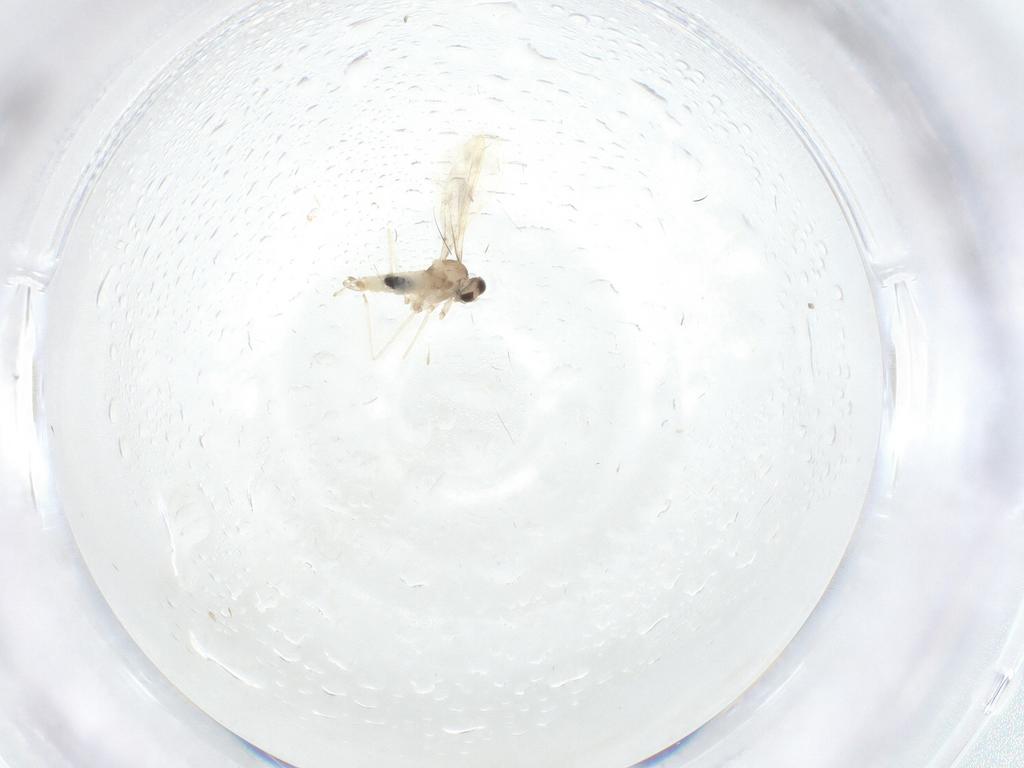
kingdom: Animalia
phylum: Arthropoda
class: Insecta
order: Diptera
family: Sciaridae
